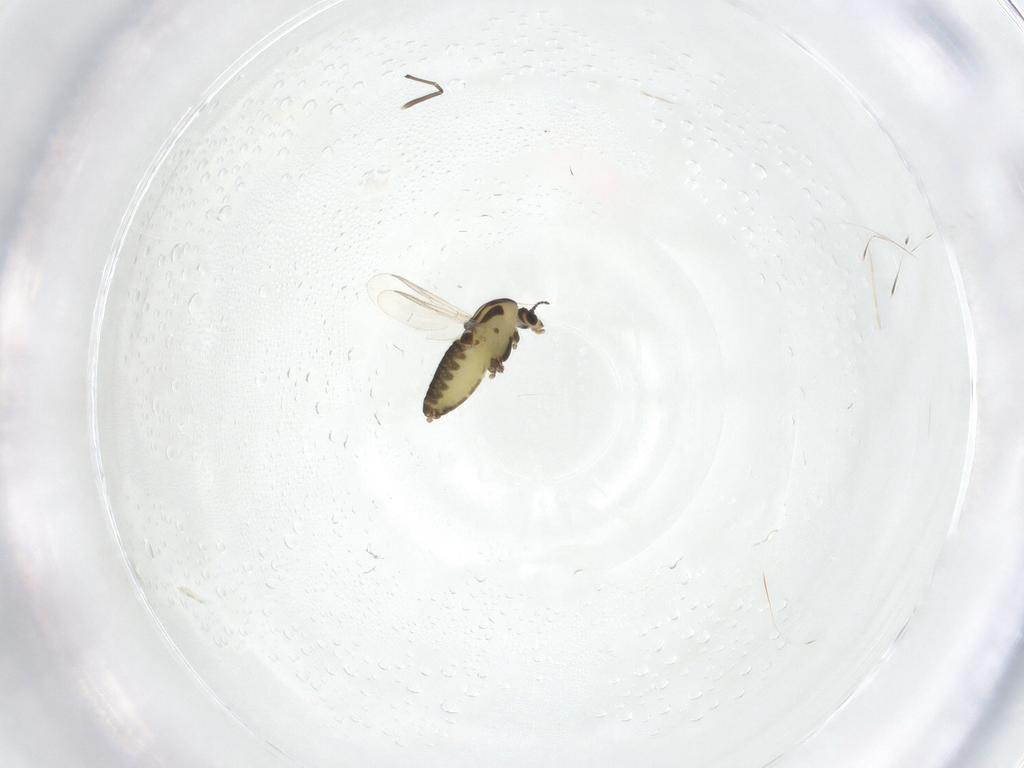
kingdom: Animalia
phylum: Arthropoda
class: Insecta
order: Diptera
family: Chironomidae
